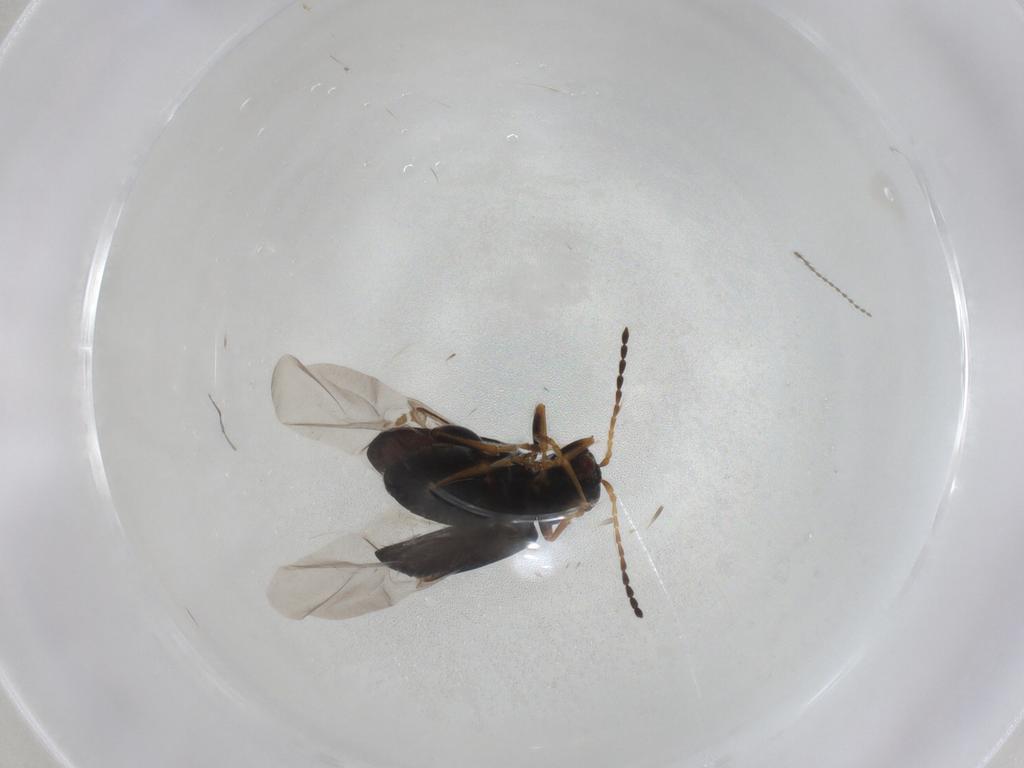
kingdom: Animalia
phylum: Arthropoda
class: Insecta
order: Coleoptera
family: Chrysomelidae
